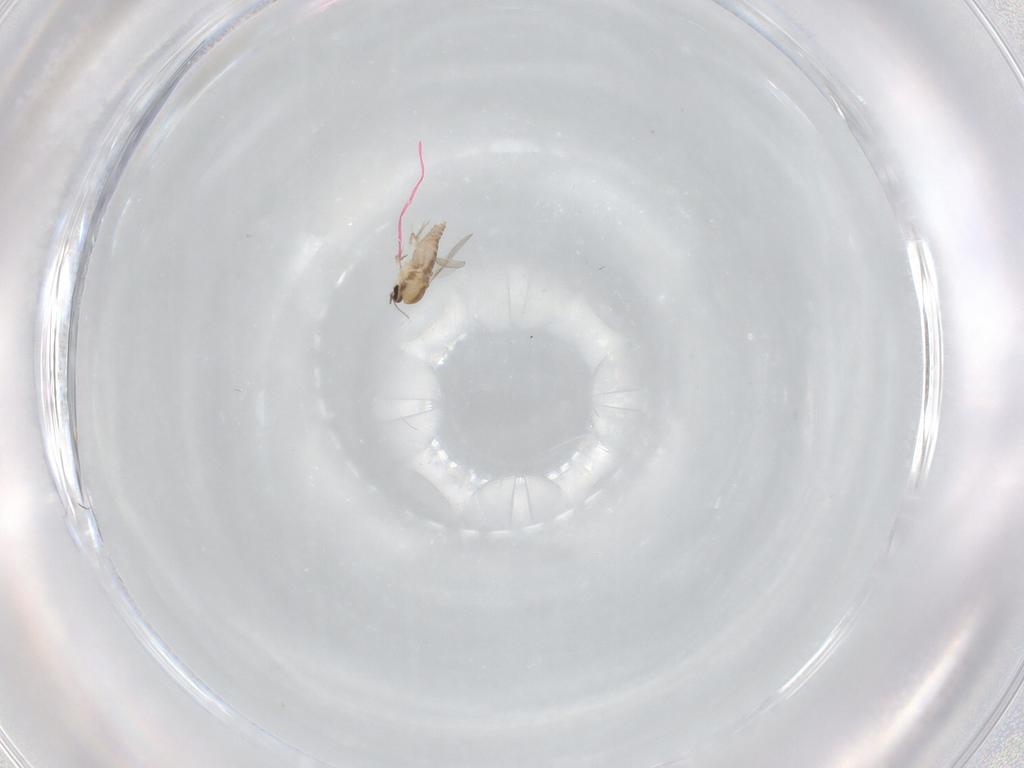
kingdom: Animalia
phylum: Arthropoda
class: Insecta
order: Diptera
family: Ceratopogonidae
